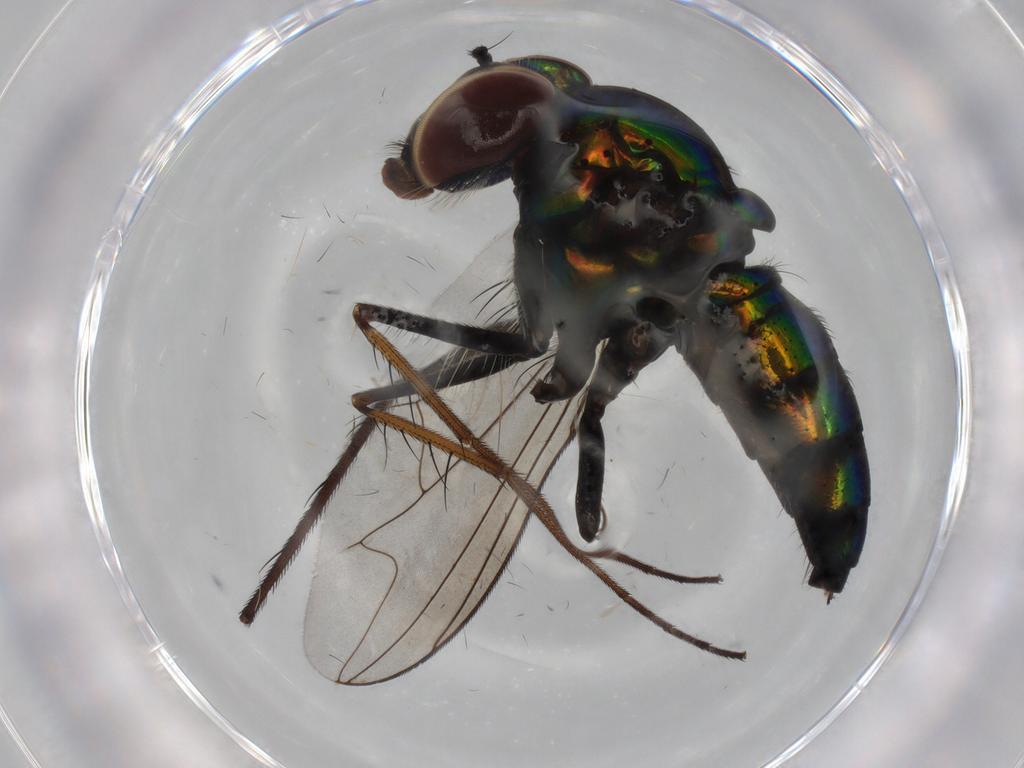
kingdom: Animalia
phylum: Arthropoda
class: Insecta
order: Diptera
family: Dolichopodidae
